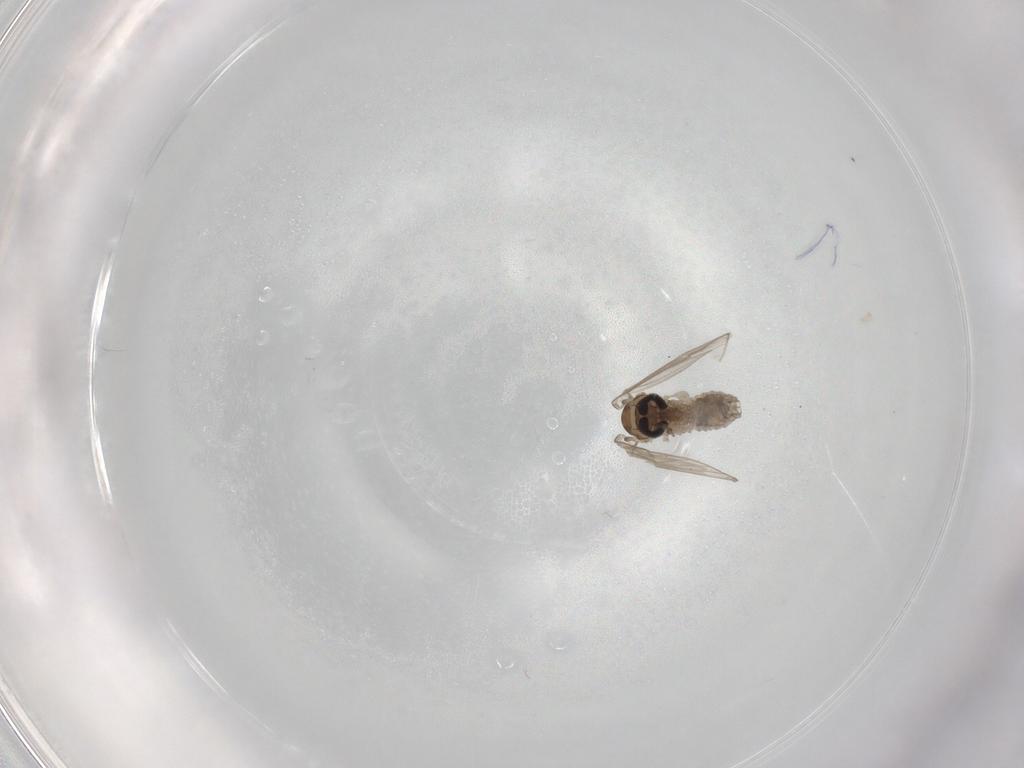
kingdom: Animalia
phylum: Arthropoda
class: Insecta
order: Diptera
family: Psychodidae
